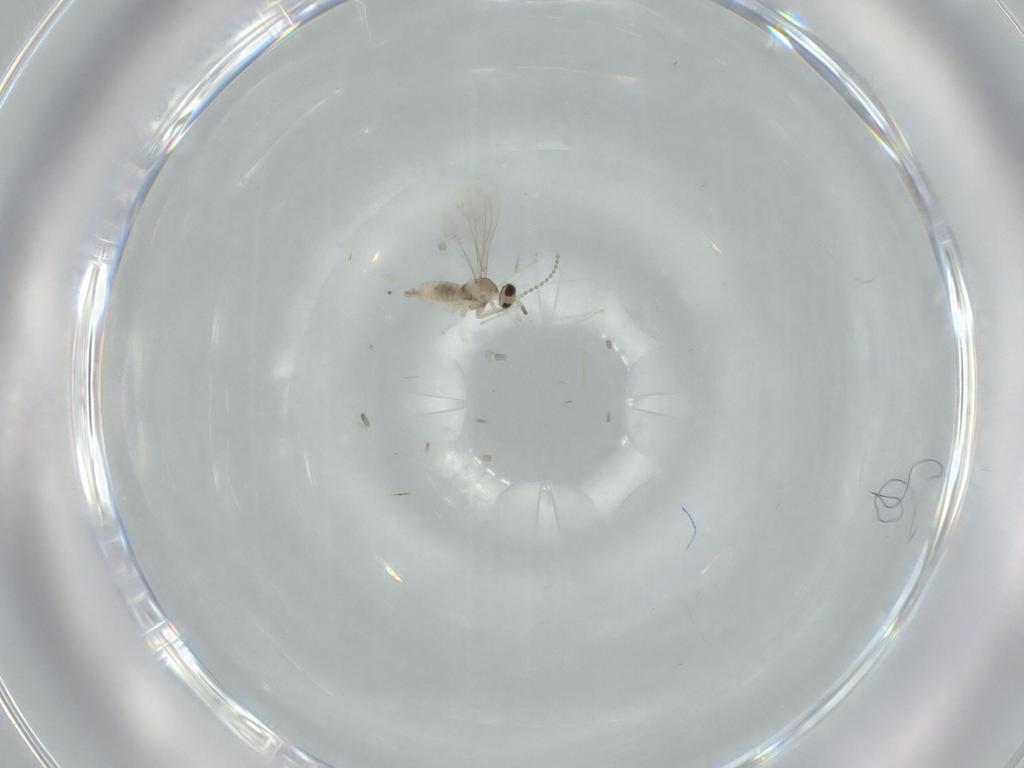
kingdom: Animalia
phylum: Arthropoda
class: Insecta
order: Diptera
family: Cecidomyiidae
